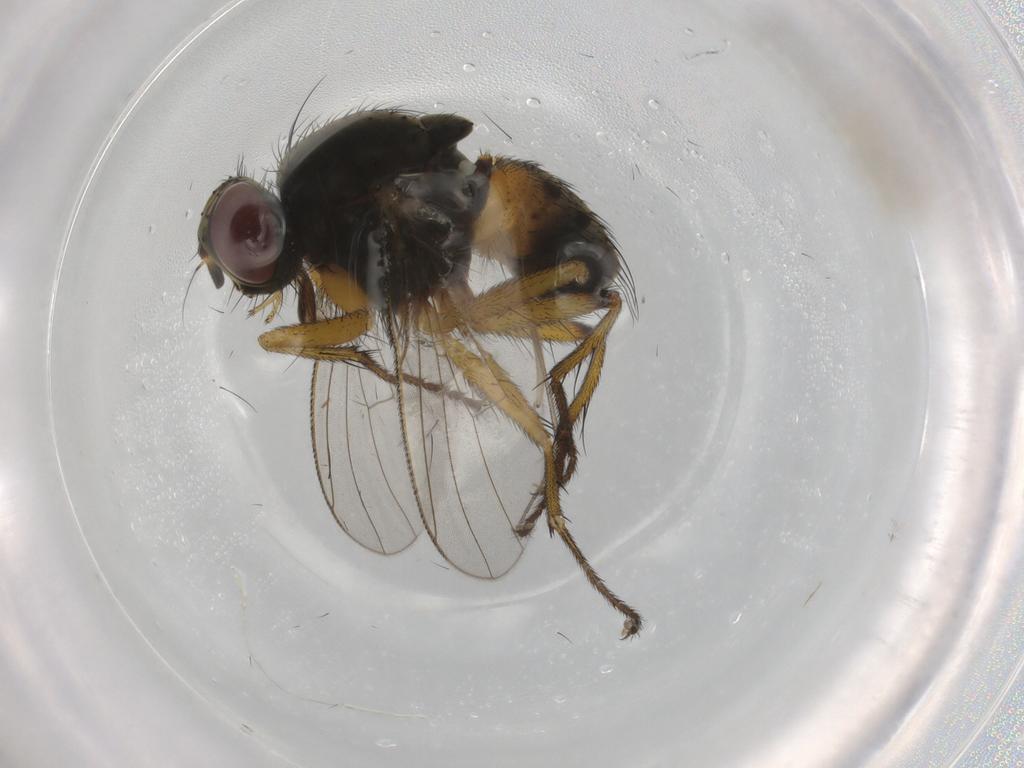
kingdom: Animalia
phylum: Arthropoda
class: Insecta
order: Diptera
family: Muscidae
